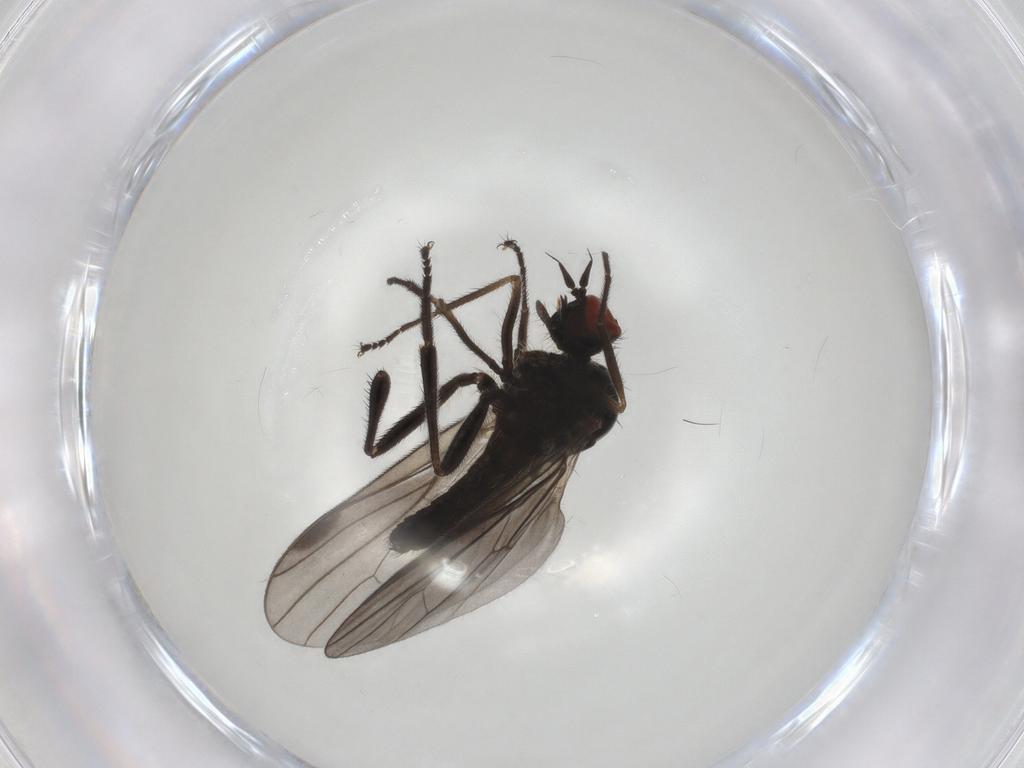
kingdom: Animalia
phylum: Arthropoda
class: Insecta
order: Diptera
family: Hybotidae
